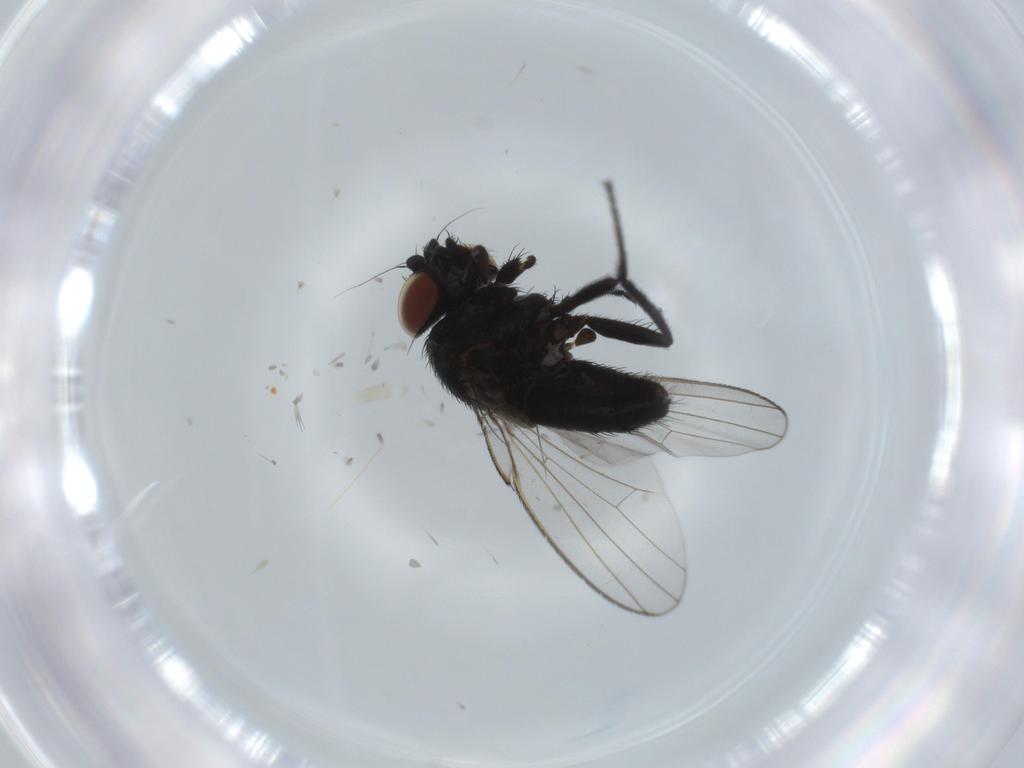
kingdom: Animalia
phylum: Arthropoda
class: Insecta
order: Diptera
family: Milichiidae
